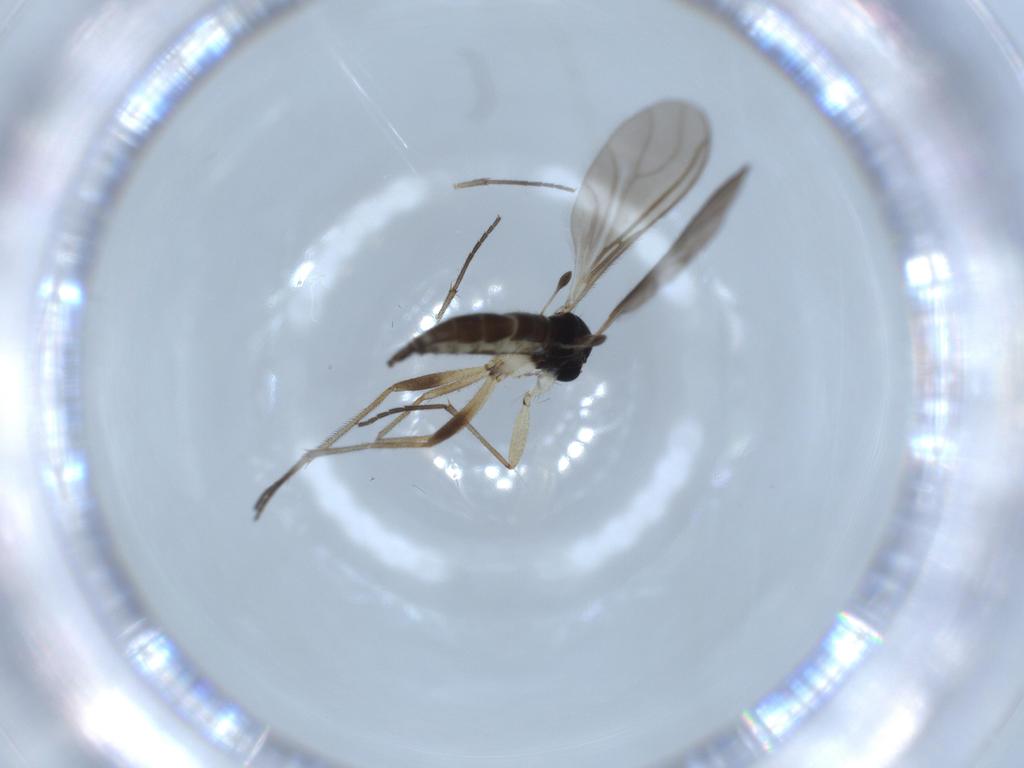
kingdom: Animalia
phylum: Arthropoda
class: Insecta
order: Diptera
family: Sciaridae
